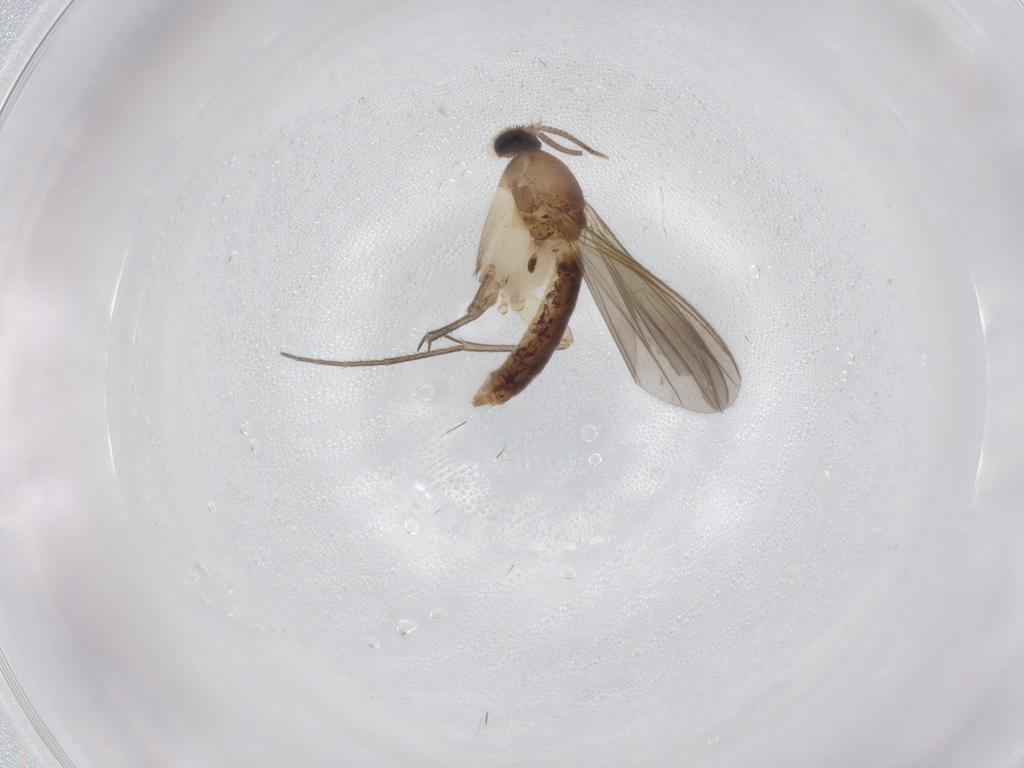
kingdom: Animalia
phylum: Arthropoda
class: Insecta
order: Diptera
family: Mycetophilidae
